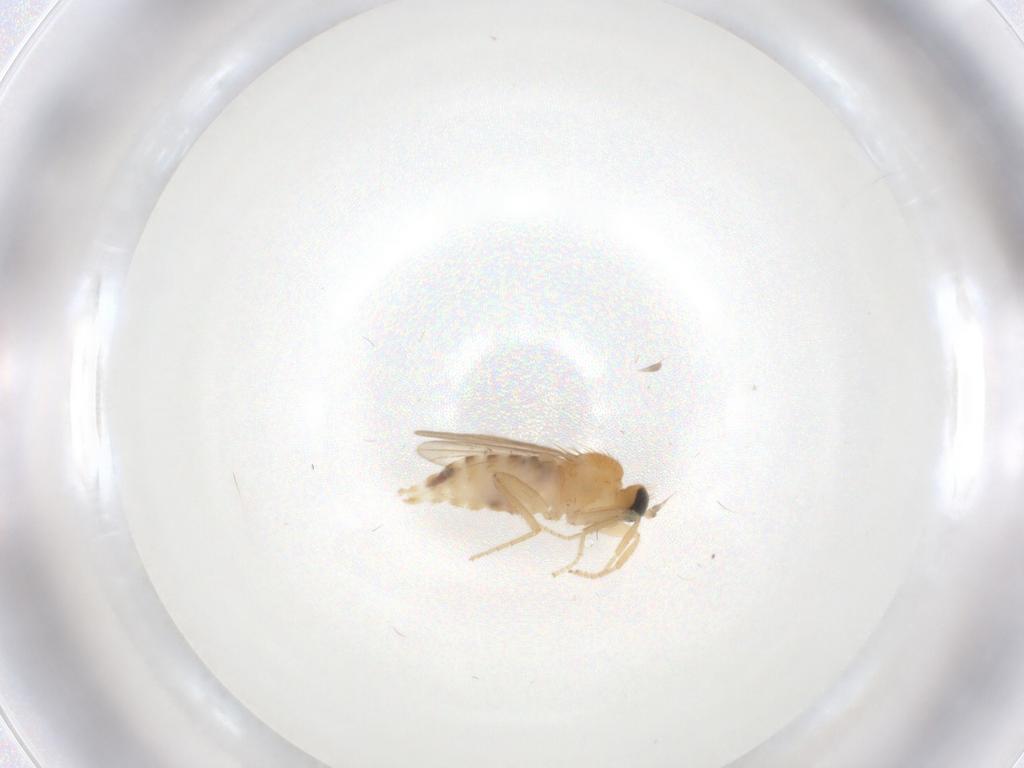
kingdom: Animalia
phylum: Arthropoda
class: Insecta
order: Diptera
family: Hybotidae
